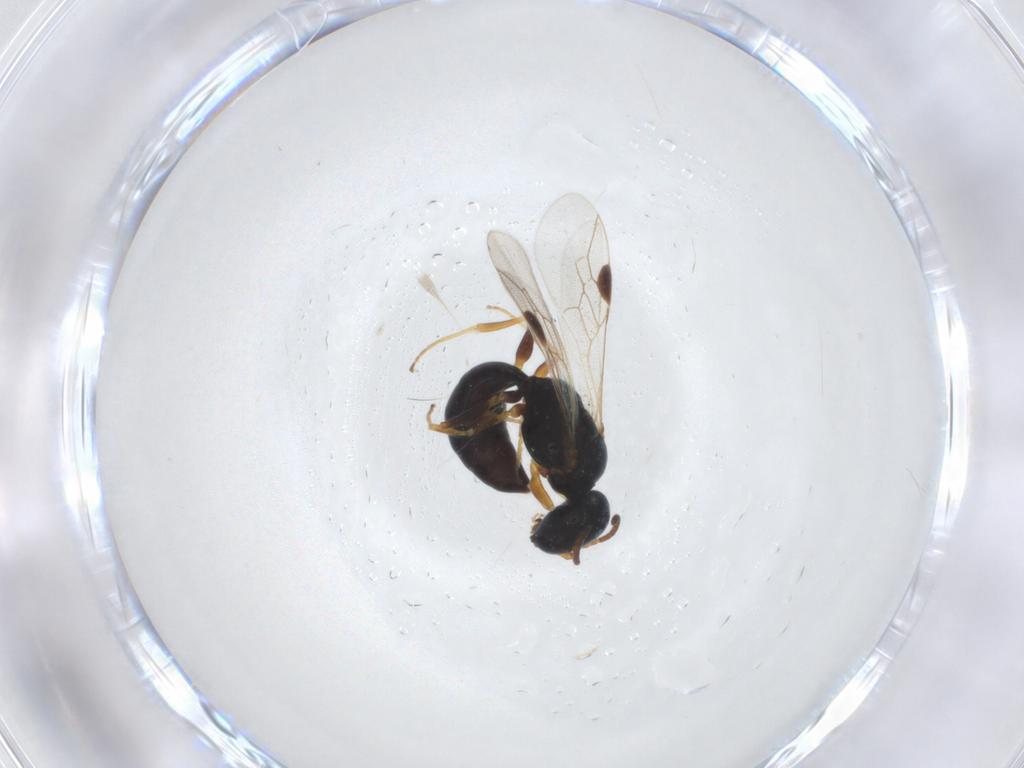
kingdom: Animalia
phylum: Arthropoda
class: Insecta
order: Hymenoptera
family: Pemphredonidae
